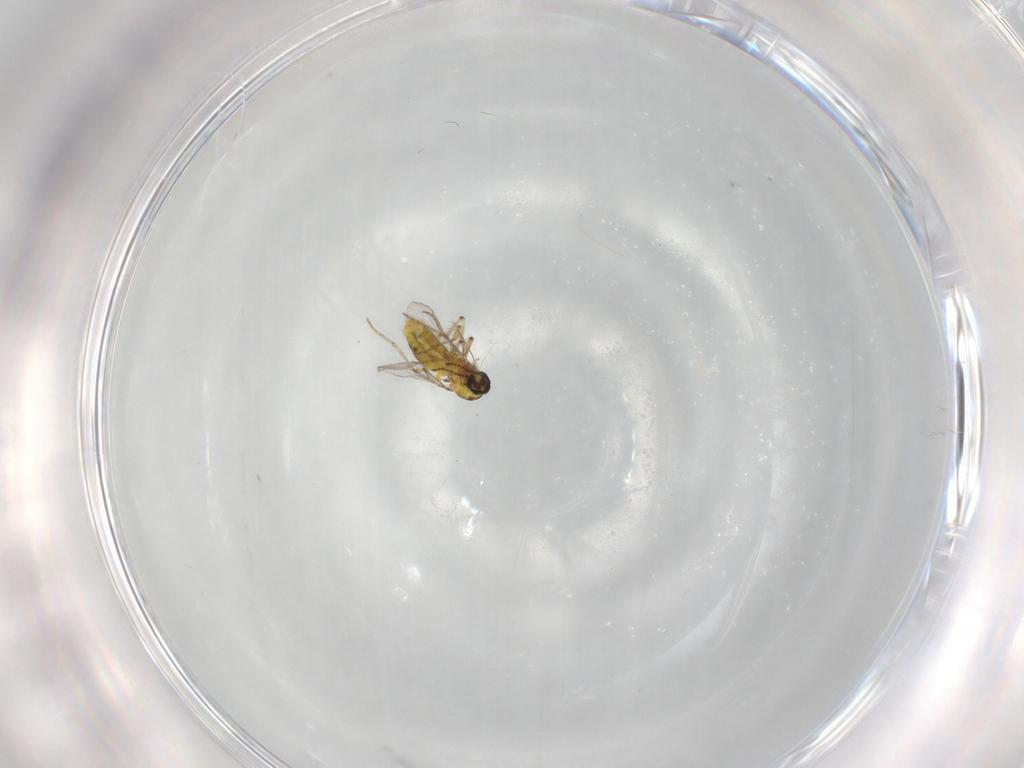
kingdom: Animalia
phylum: Arthropoda
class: Insecta
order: Diptera
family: Ceratopogonidae
